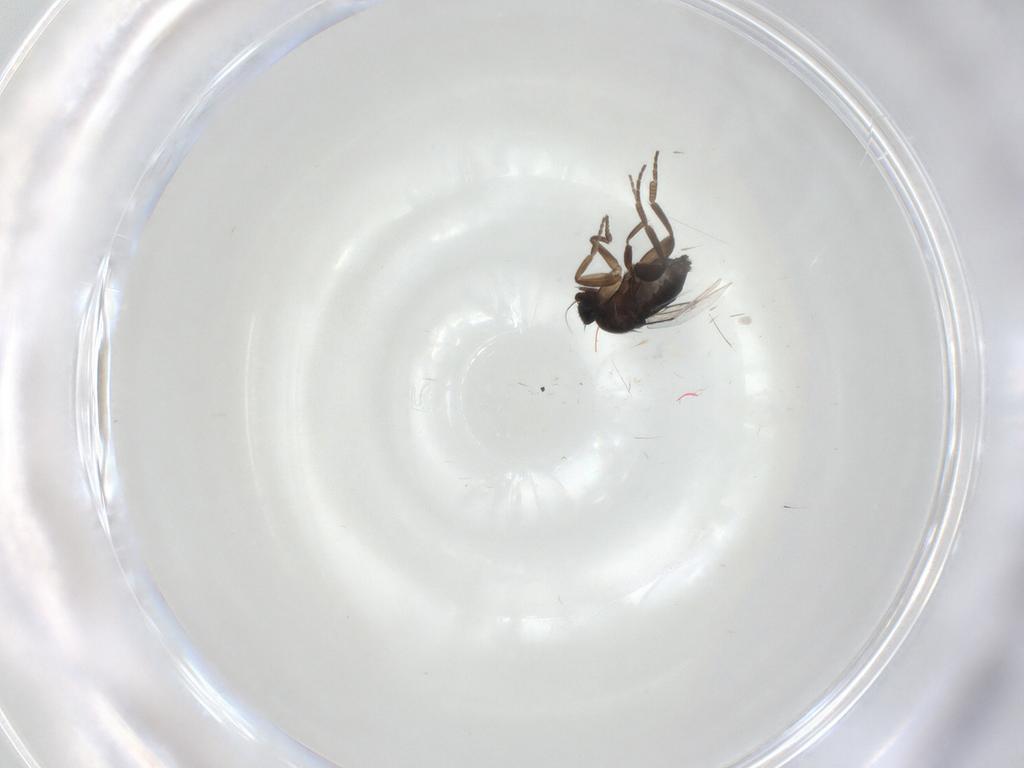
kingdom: Animalia
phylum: Arthropoda
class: Insecta
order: Diptera
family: Phoridae
